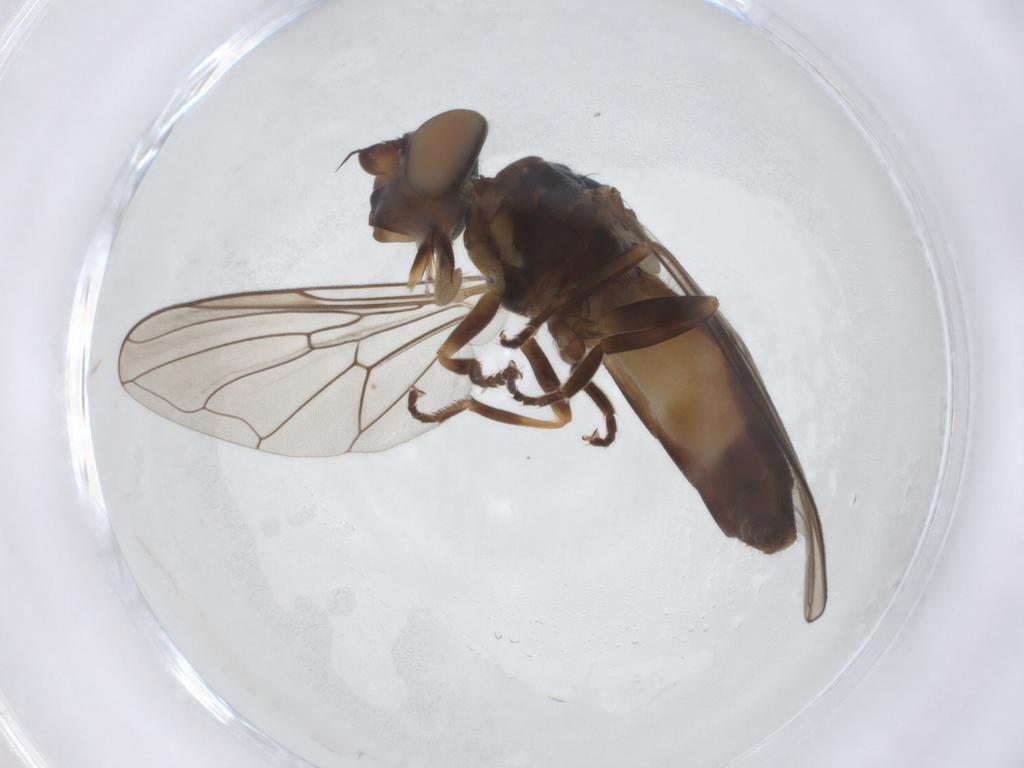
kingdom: Animalia
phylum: Arthropoda
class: Insecta
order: Diptera
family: Syrphidae
